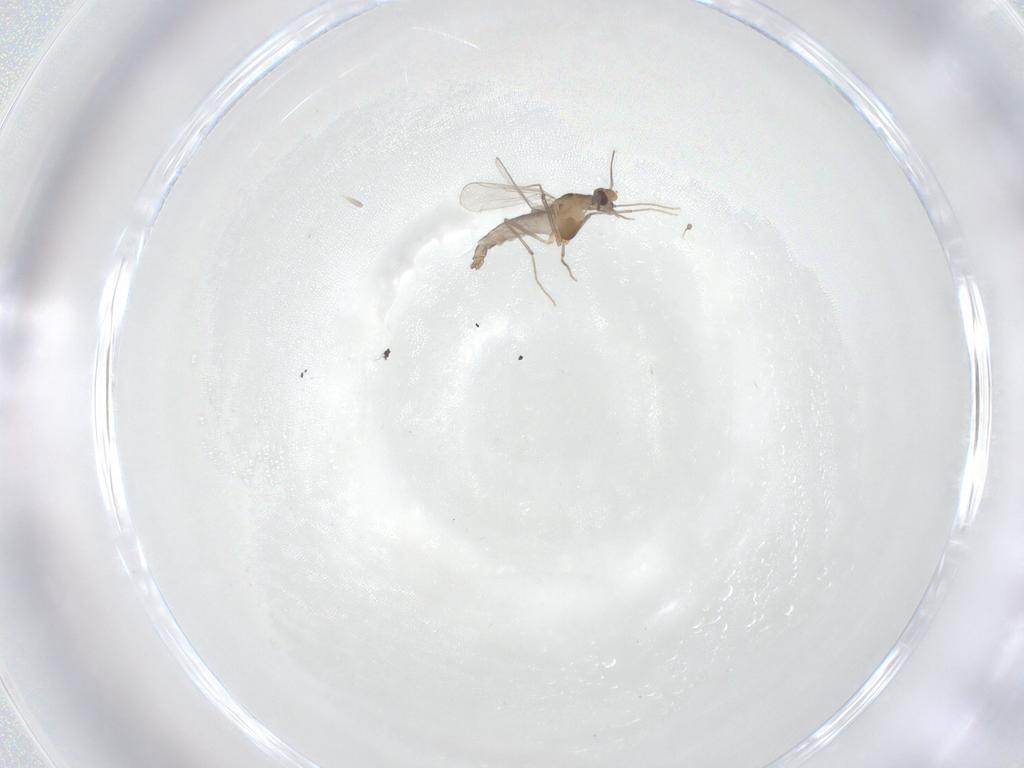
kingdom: Animalia
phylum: Arthropoda
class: Insecta
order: Diptera
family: Chironomidae
